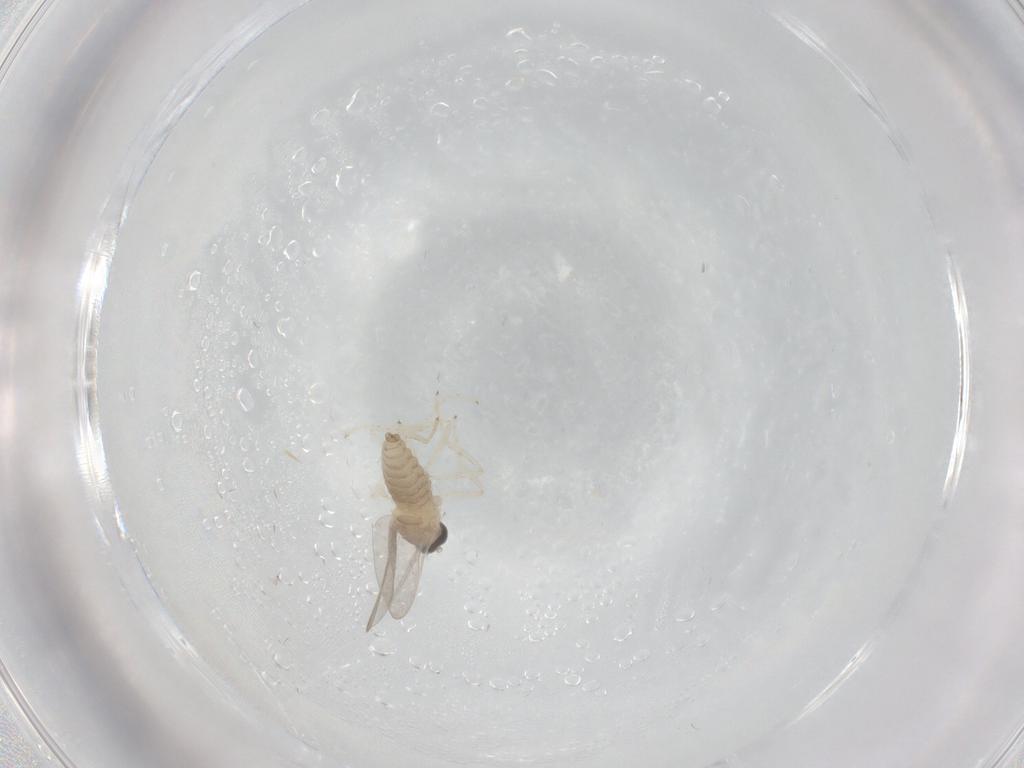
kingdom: Animalia
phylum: Arthropoda
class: Insecta
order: Diptera
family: Cecidomyiidae
